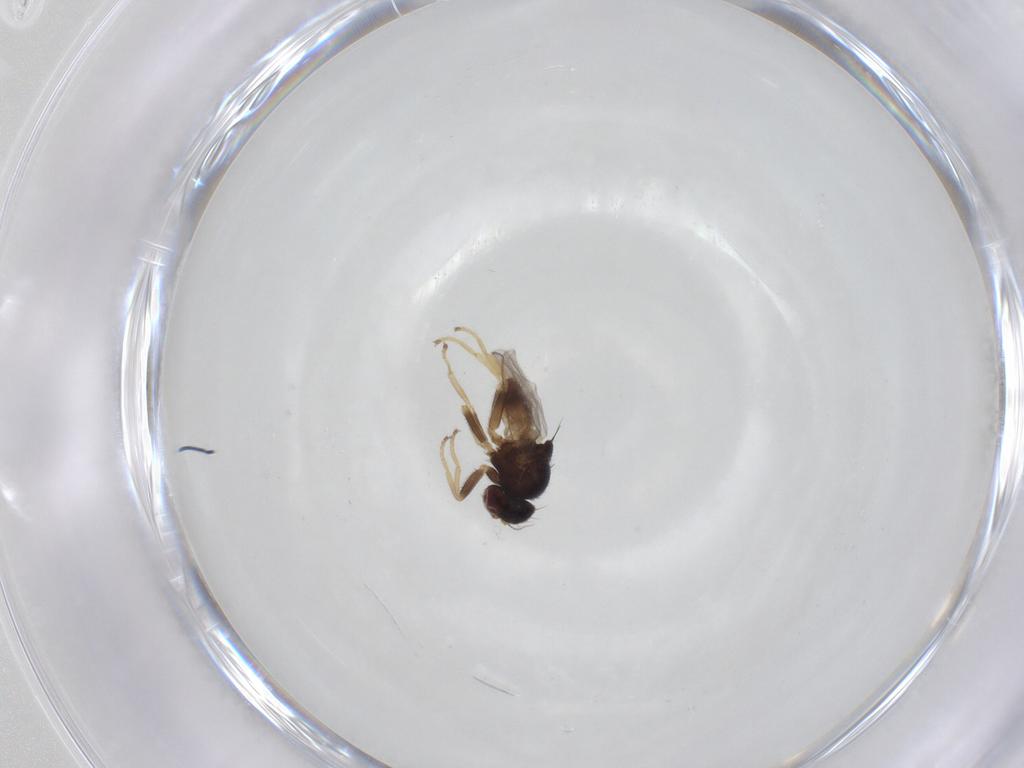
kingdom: Animalia
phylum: Arthropoda
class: Insecta
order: Diptera
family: Chloropidae
